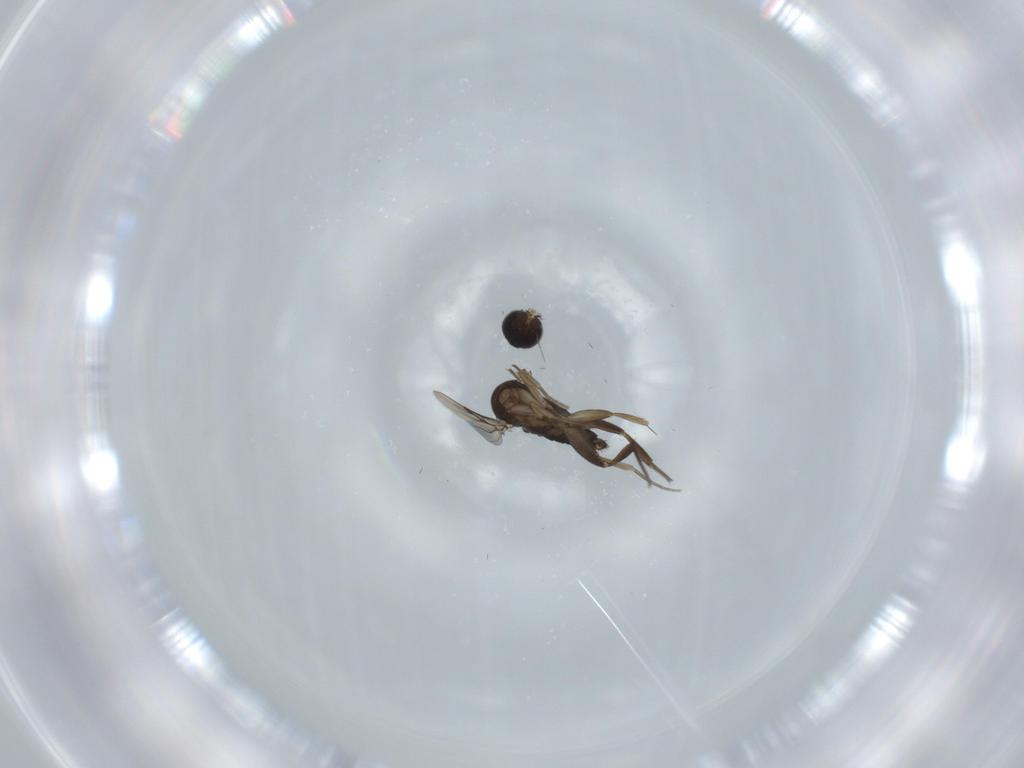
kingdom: Animalia
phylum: Arthropoda
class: Insecta
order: Diptera
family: Phoridae
